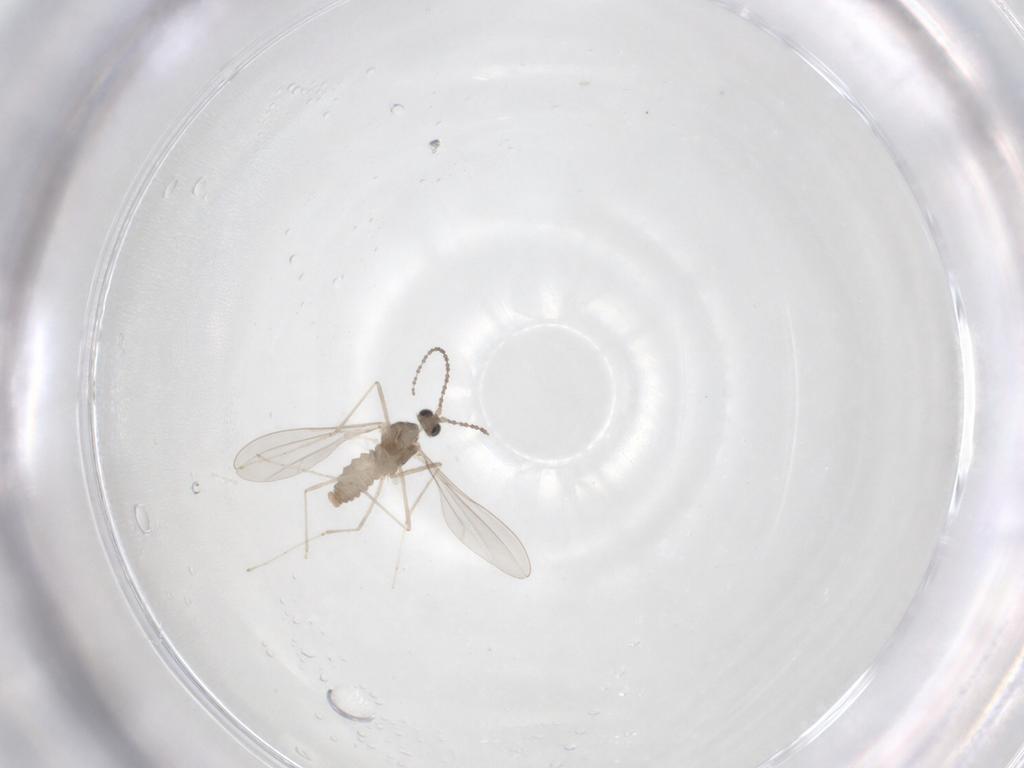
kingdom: Animalia
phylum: Arthropoda
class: Insecta
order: Diptera
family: Cecidomyiidae
